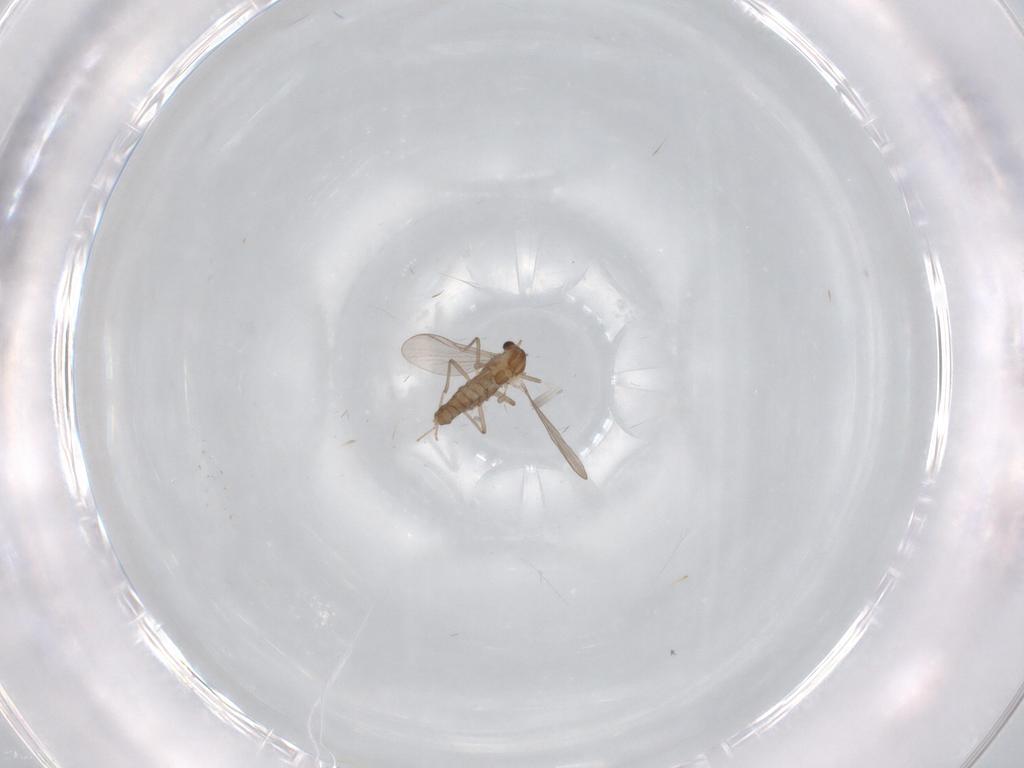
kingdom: Animalia
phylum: Arthropoda
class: Insecta
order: Diptera
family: Chironomidae
